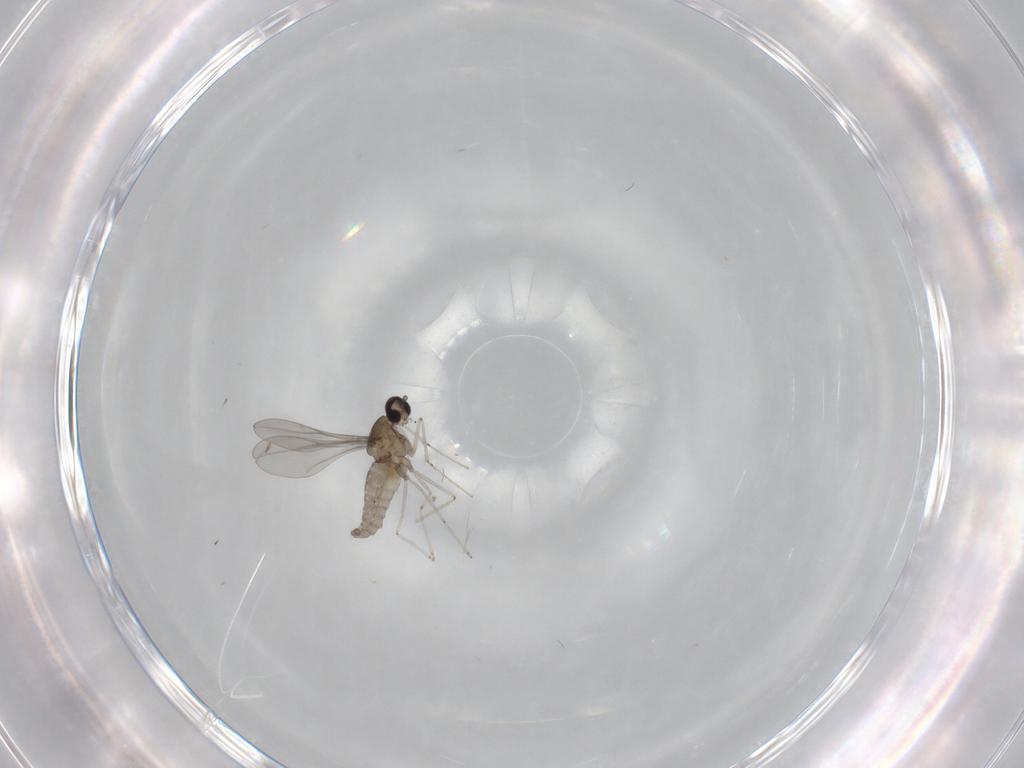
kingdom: Animalia
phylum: Arthropoda
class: Insecta
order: Diptera
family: Cecidomyiidae
